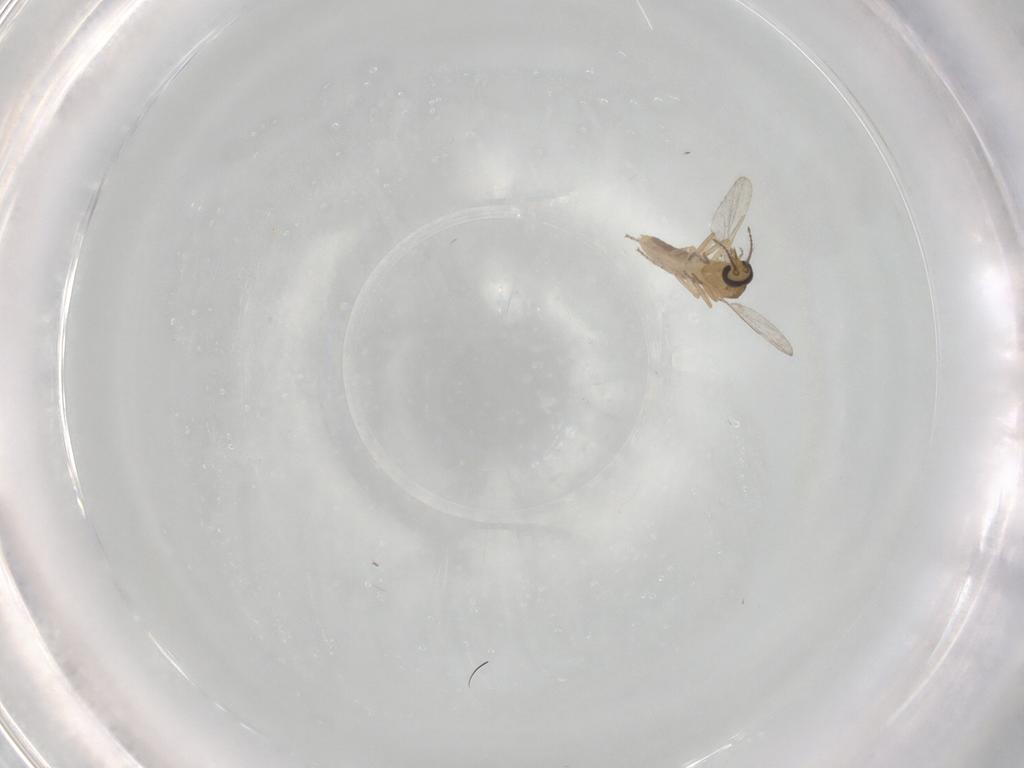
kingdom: Animalia
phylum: Arthropoda
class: Insecta
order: Diptera
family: Ceratopogonidae
